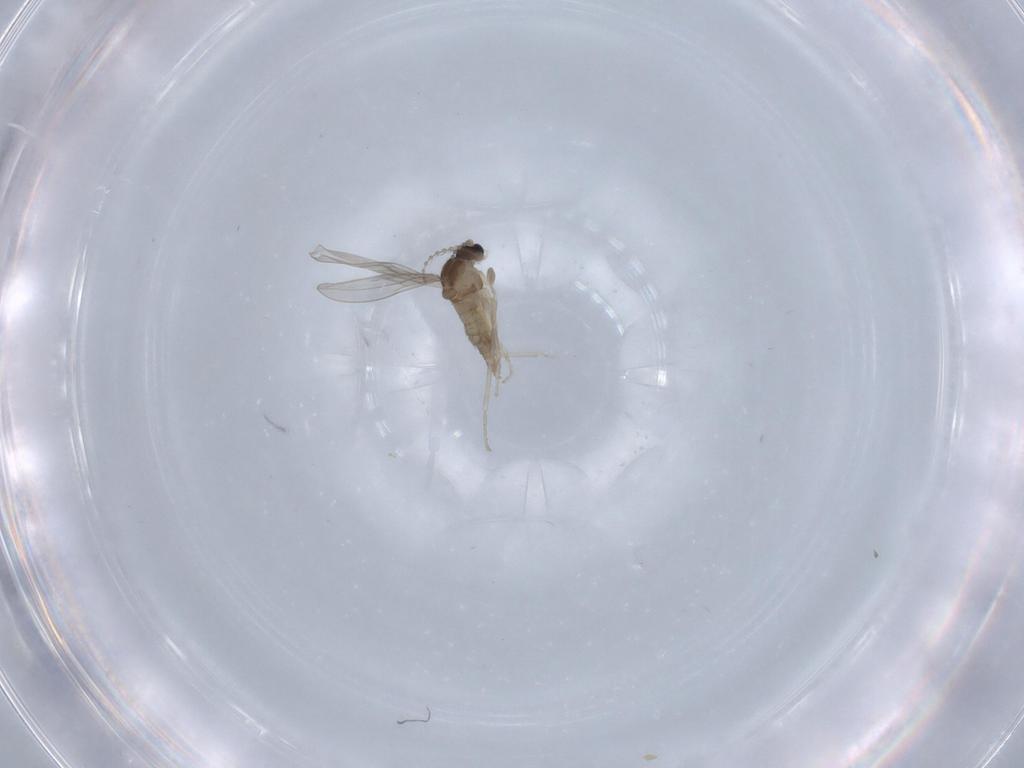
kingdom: Animalia
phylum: Arthropoda
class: Insecta
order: Diptera
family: Cecidomyiidae
